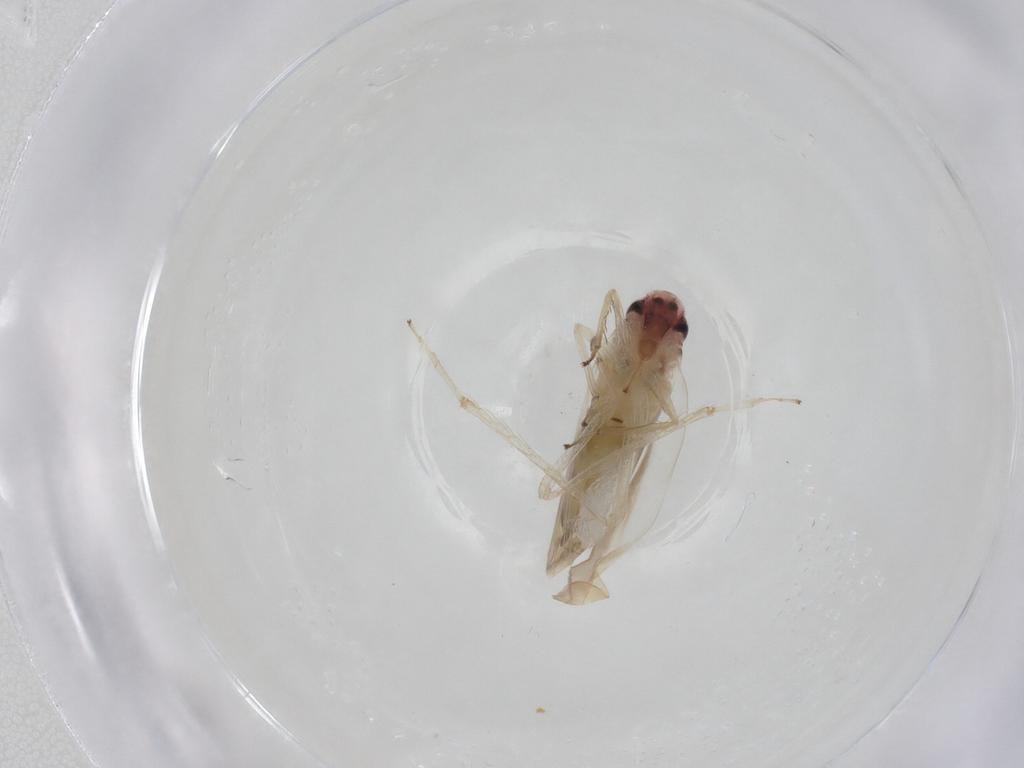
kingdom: Animalia
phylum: Arthropoda
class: Insecta
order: Hemiptera
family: Cicadellidae
